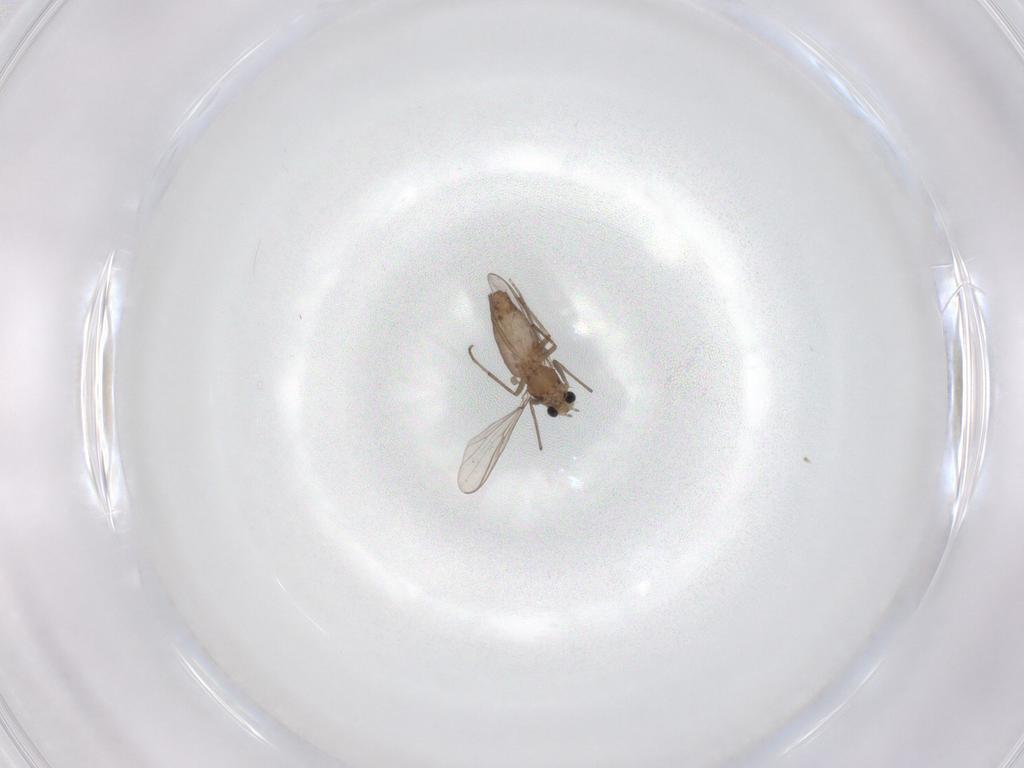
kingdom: Animalia
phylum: Arthropoda
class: Insecta
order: Diptera
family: Chironomidae
